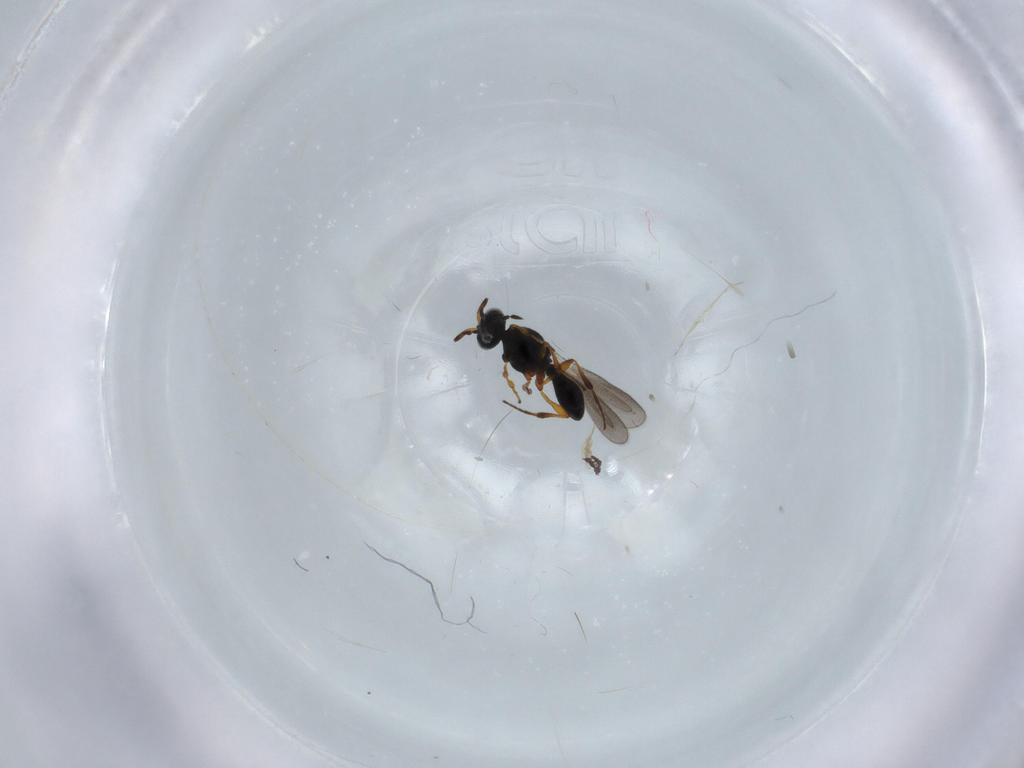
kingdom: Animalia
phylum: Arthropoda
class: Insecta
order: Hymenoptera
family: Platygastridae
